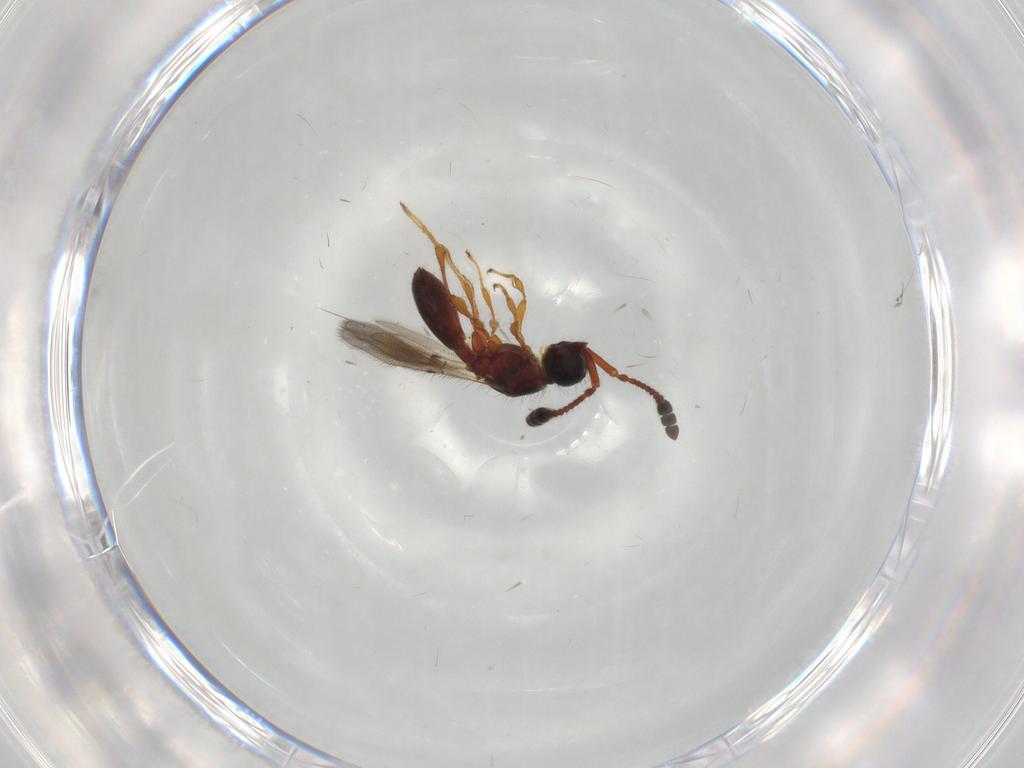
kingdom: Animalia
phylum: Arthropoda
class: Insecta
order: Hymenoptera
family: Diapriidae
